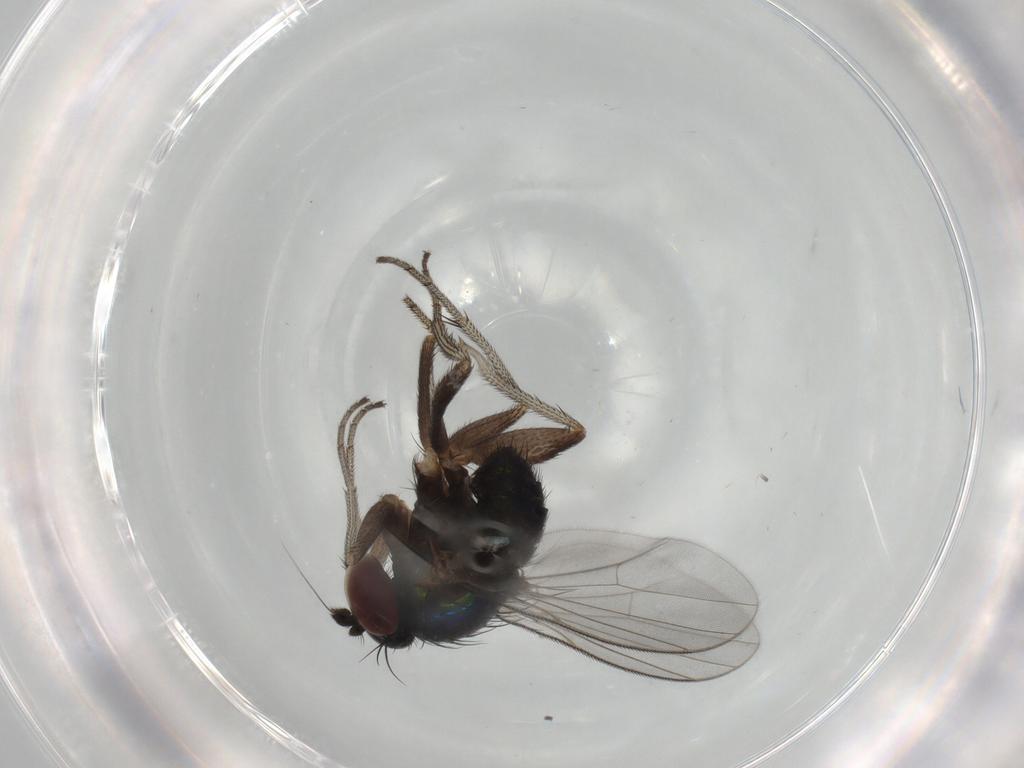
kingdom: Animalia
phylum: Arthropoda
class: Insecta
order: Diptera
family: Dolichopodidae
